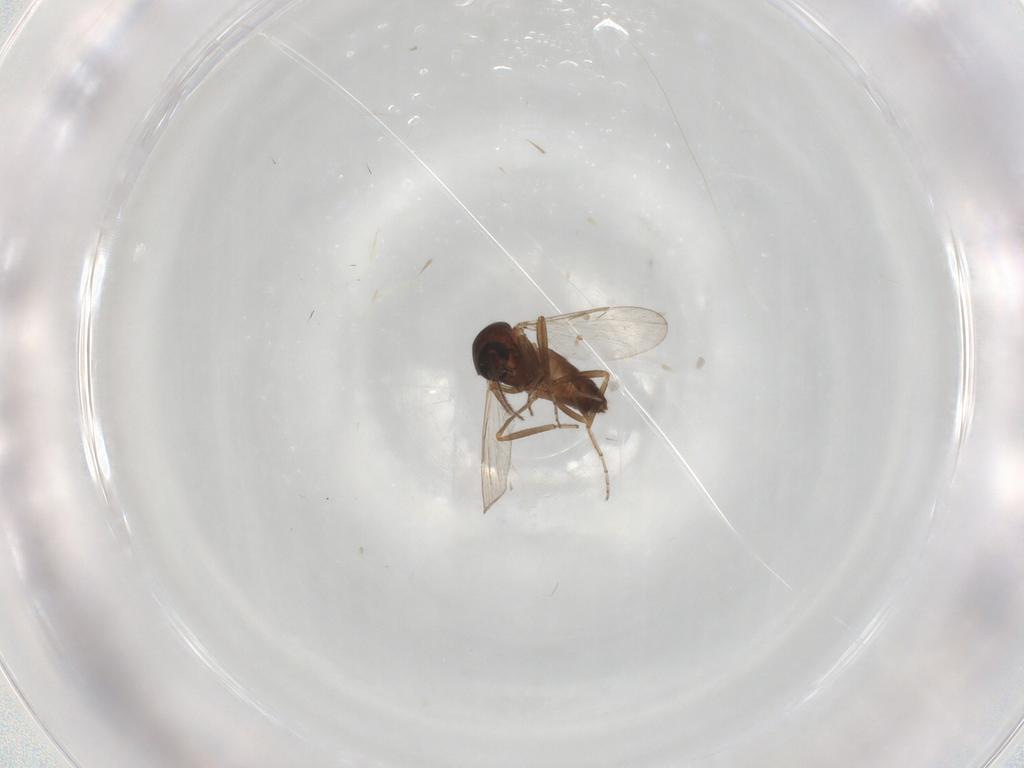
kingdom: Animalia
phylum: Arthropoda
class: Insecta
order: Diptera
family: Ceratopogonidae
